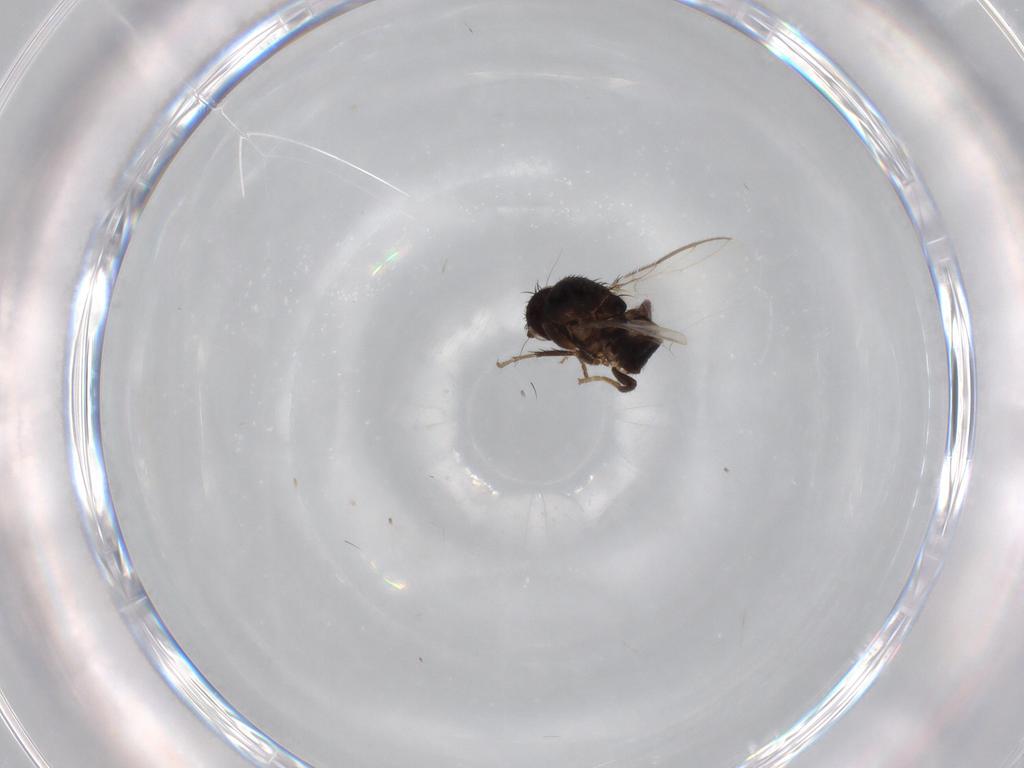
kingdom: Animalia
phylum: Arthropoda
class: Insecta
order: Diptera
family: Sphaeroceridae
